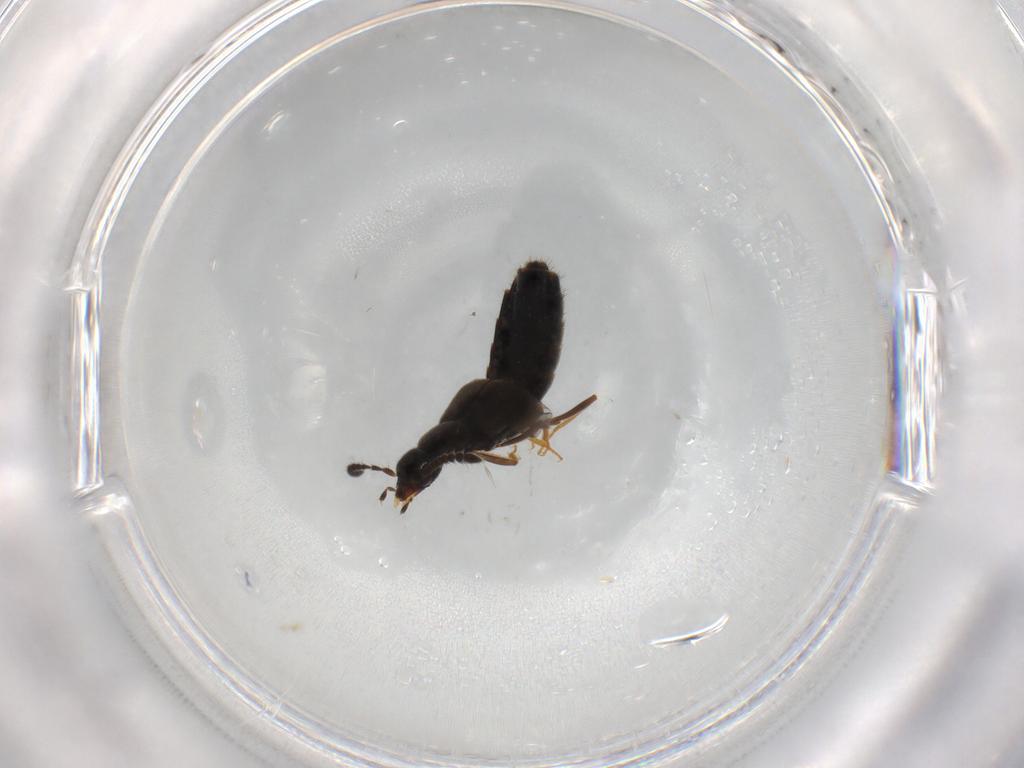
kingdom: Animalia
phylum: Arthropoda
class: Insecta
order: Coleoptera
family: Staphylinidae
